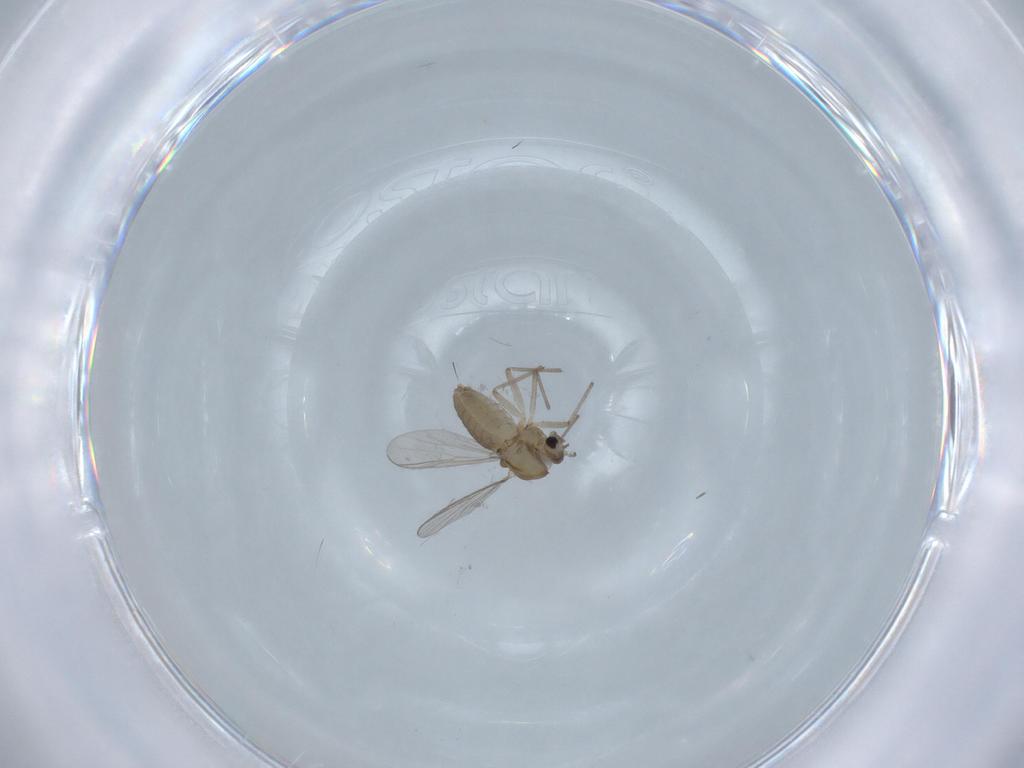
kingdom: Animalia
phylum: Arthropoda
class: Insecta
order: Diptera
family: Chironomidae
